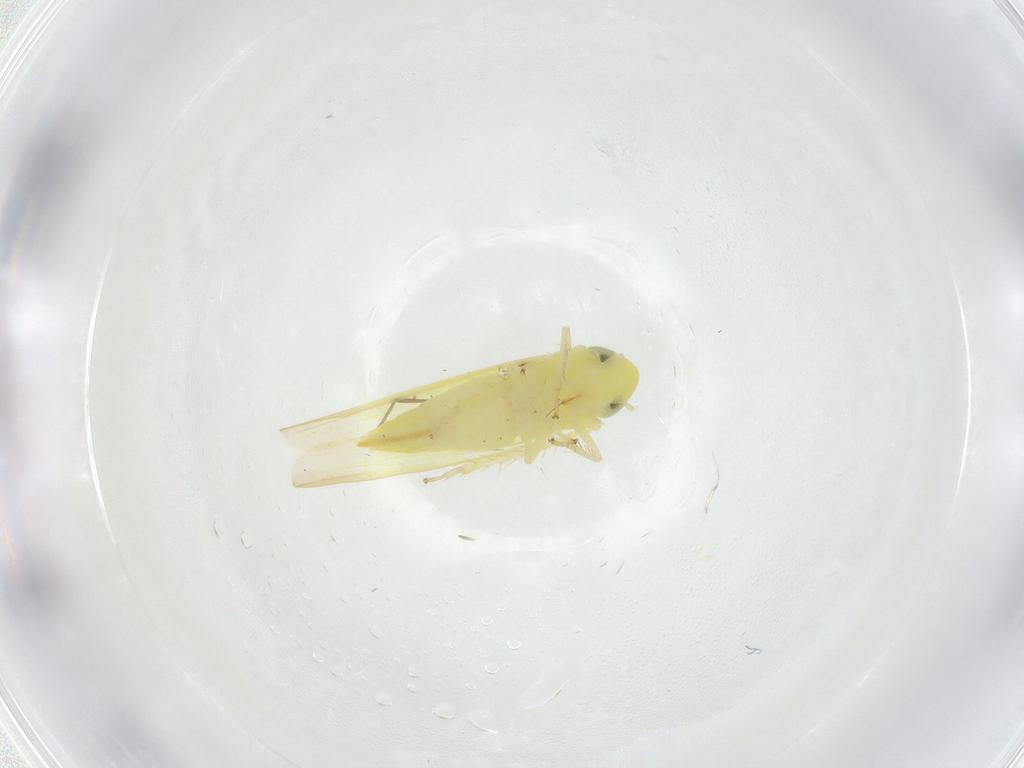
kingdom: Animalia
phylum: Arthropoda
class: Insecta
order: Hemiptera
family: Cicadellidae
